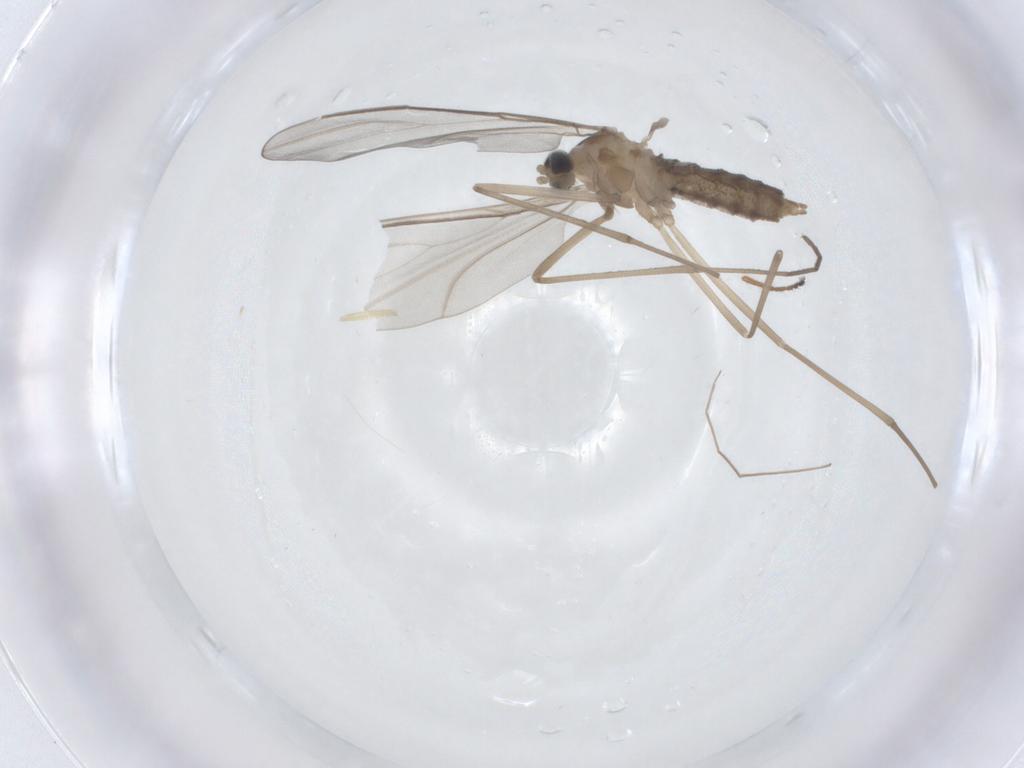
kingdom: Animalia
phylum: Arthropoda
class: Insecta
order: Diptera
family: Cecidomyiidae
